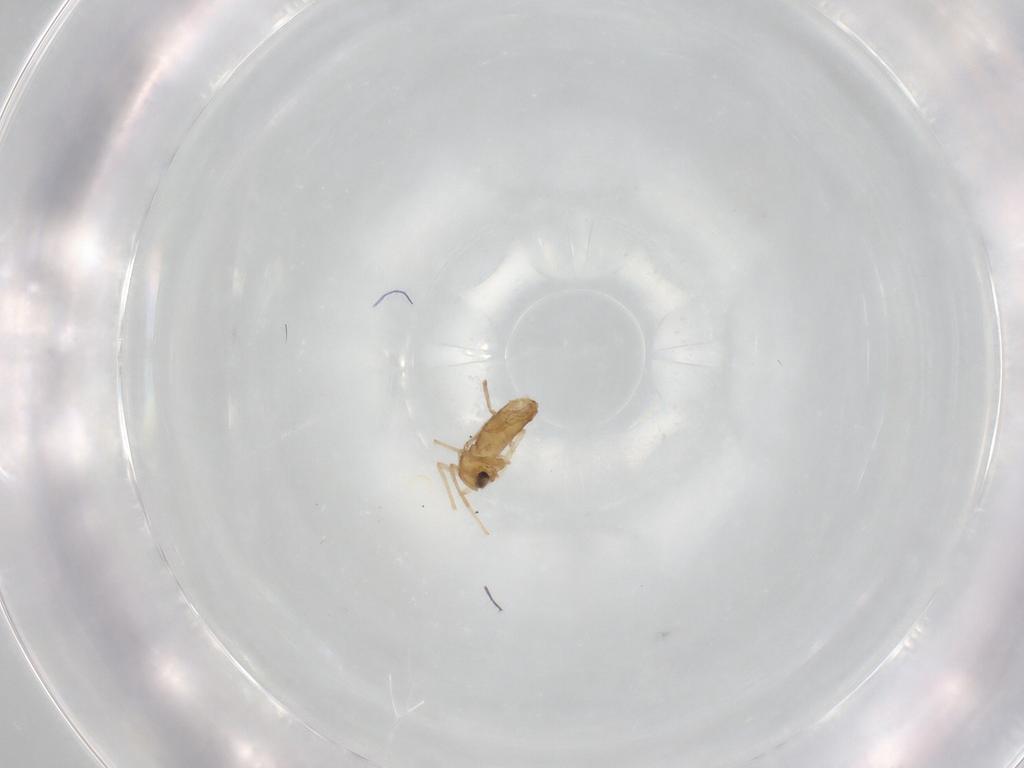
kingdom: Animalia
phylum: Arthropoda
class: Insecta
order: Diptera
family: Chironomidae
